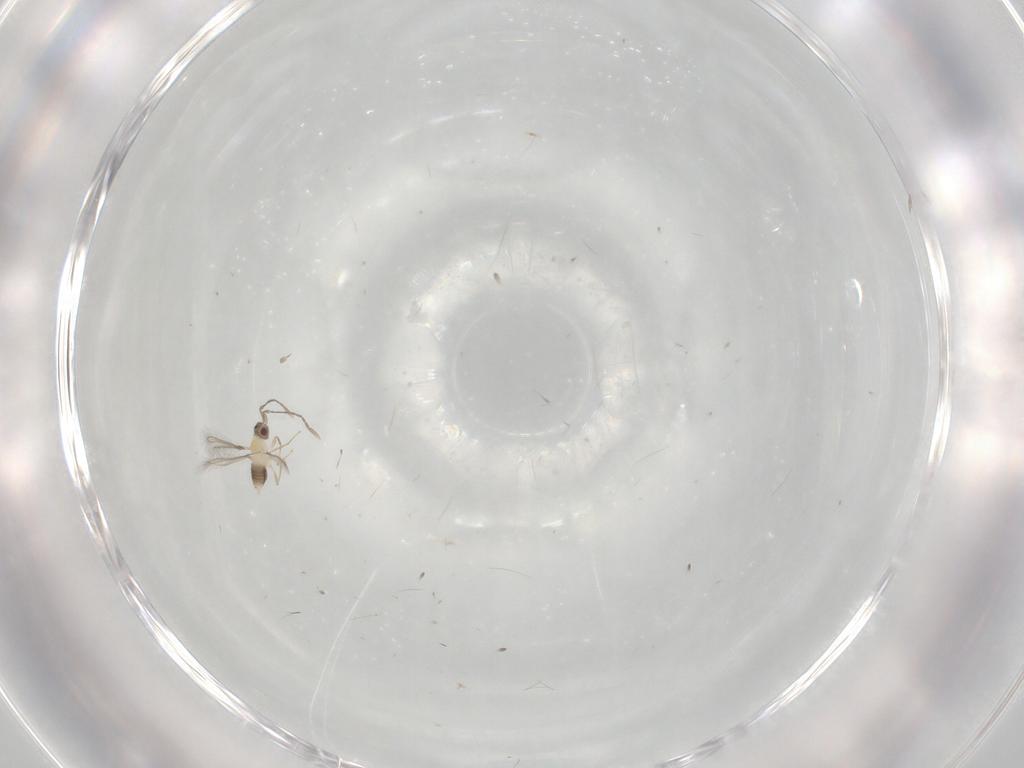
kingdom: Animalia
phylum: Arthropoda
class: Insecta
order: Hymenoptera
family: Mymaridae
